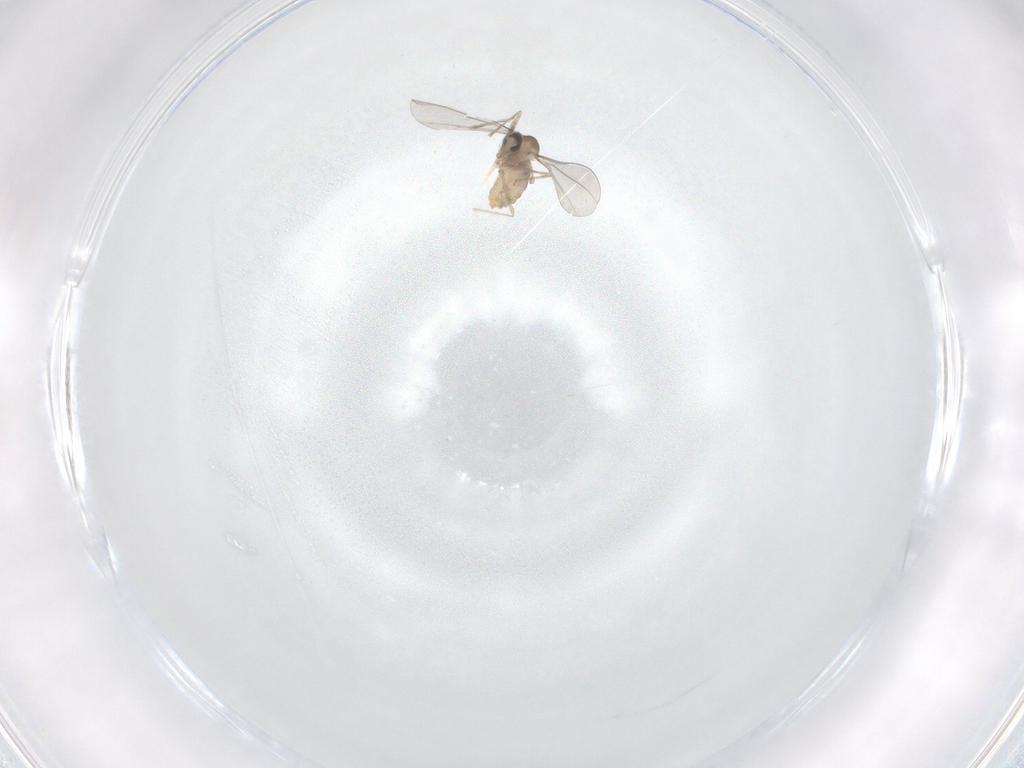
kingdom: Animalia
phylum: Arthropoda
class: Insecta
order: Diptera
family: Cecidomyiidae
